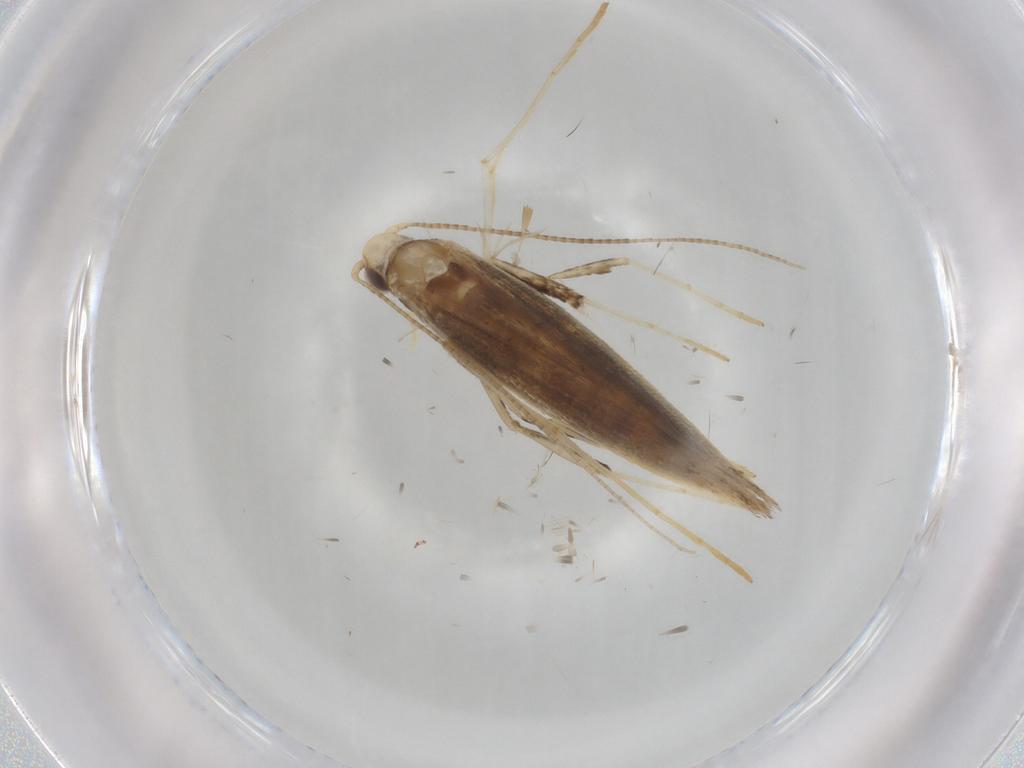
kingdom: Animalia
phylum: Arthropoda
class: Insecta
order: Lepidoptera
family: Gracillariidae
